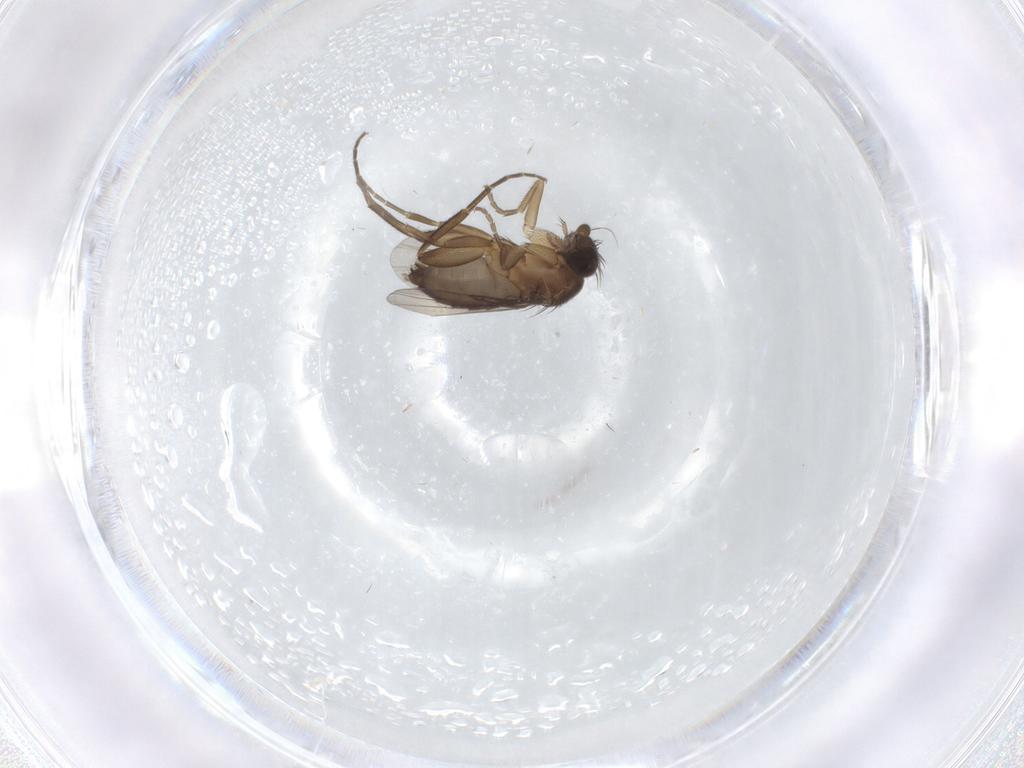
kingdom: Animalia
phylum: Arthropoda
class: Insecta
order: Diptera
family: Phoridae
